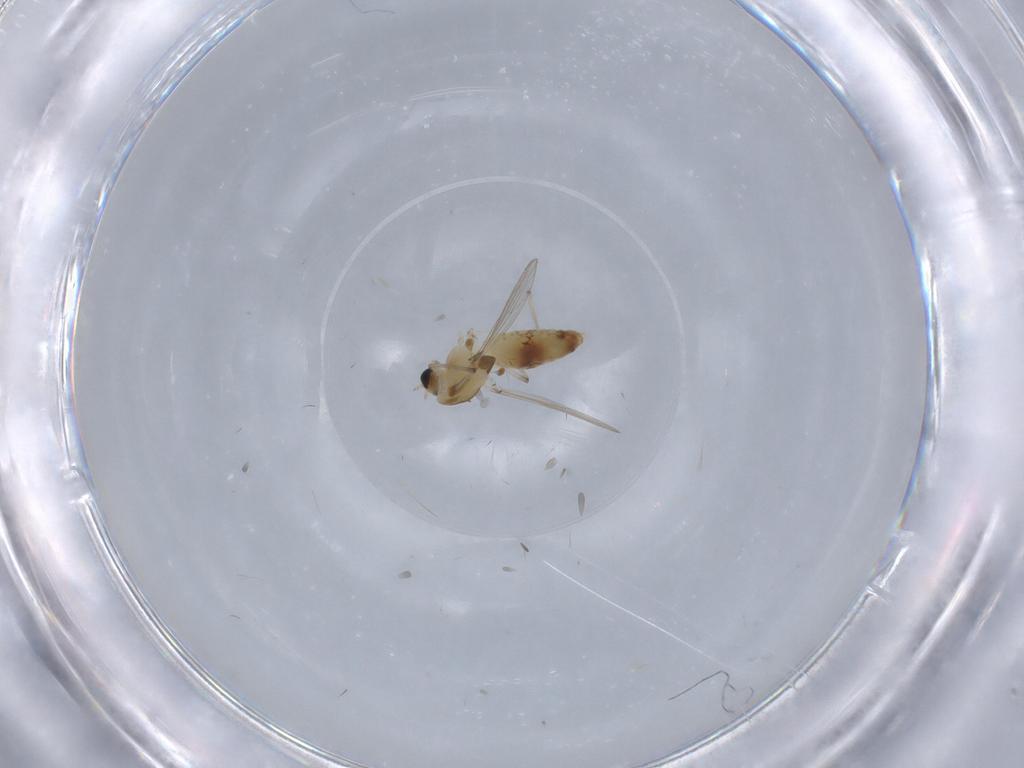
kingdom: Animalia
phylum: Arthropoda
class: Insecta
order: Diptera
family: Chironomidae
